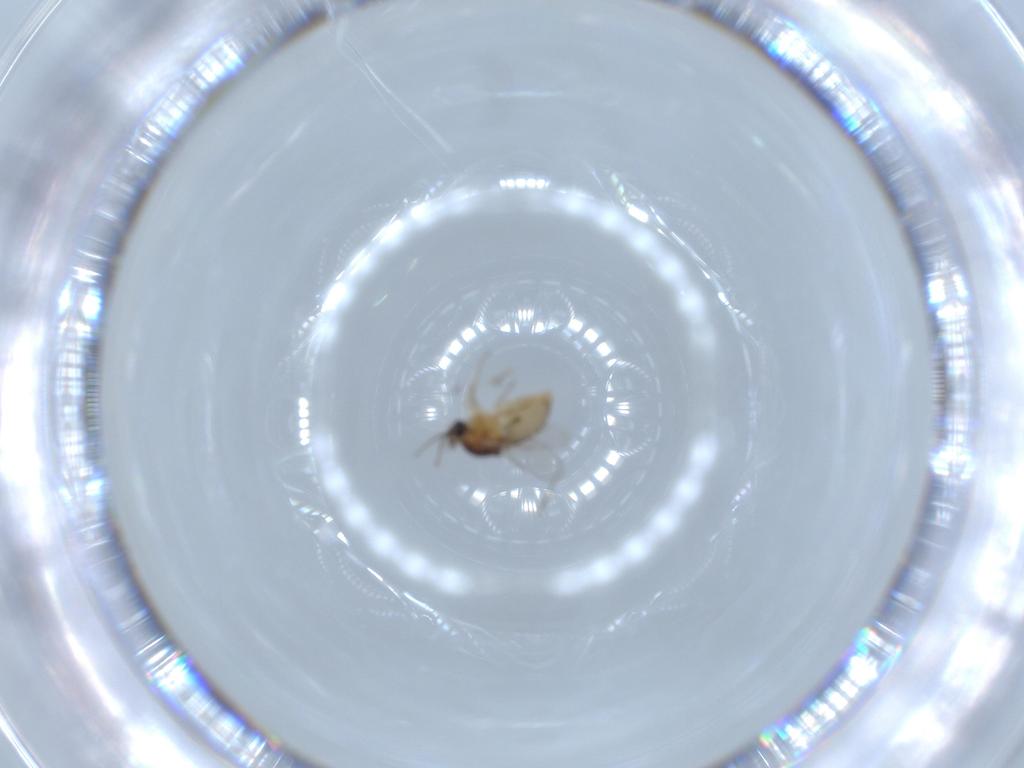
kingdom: Animalia
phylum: Arthropoda
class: Insecta
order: Diptera
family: Ceratopogonidae
